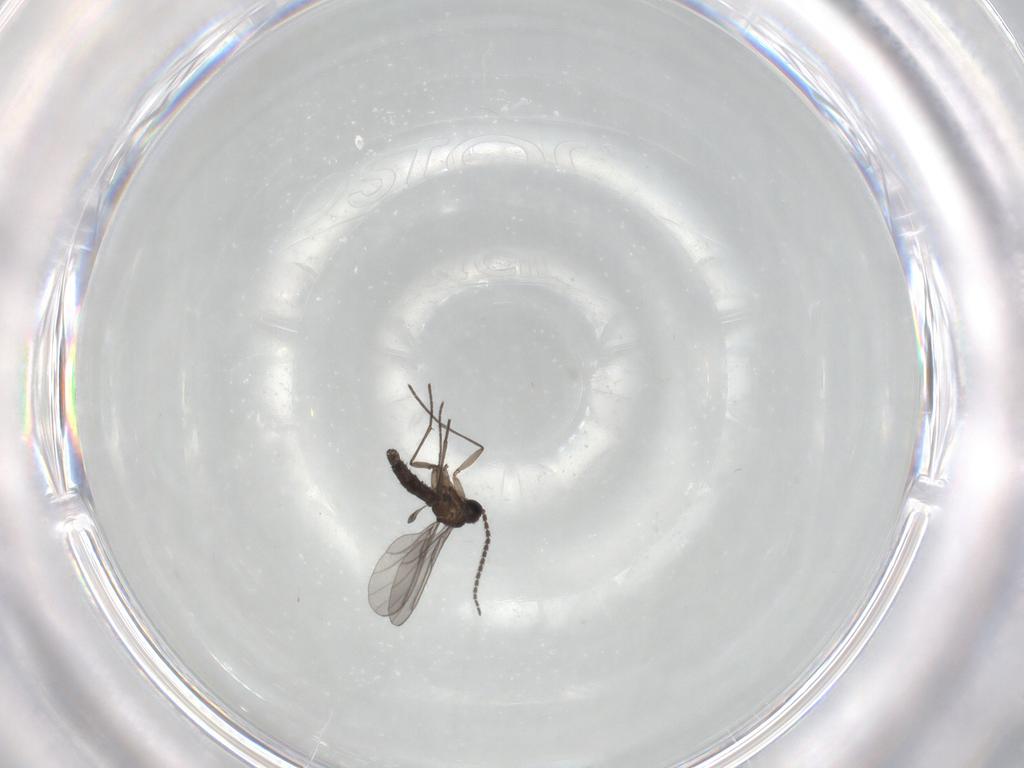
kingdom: Animalia
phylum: Arthropoda
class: Insecta
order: Diptera
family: Cecidomyiidae
